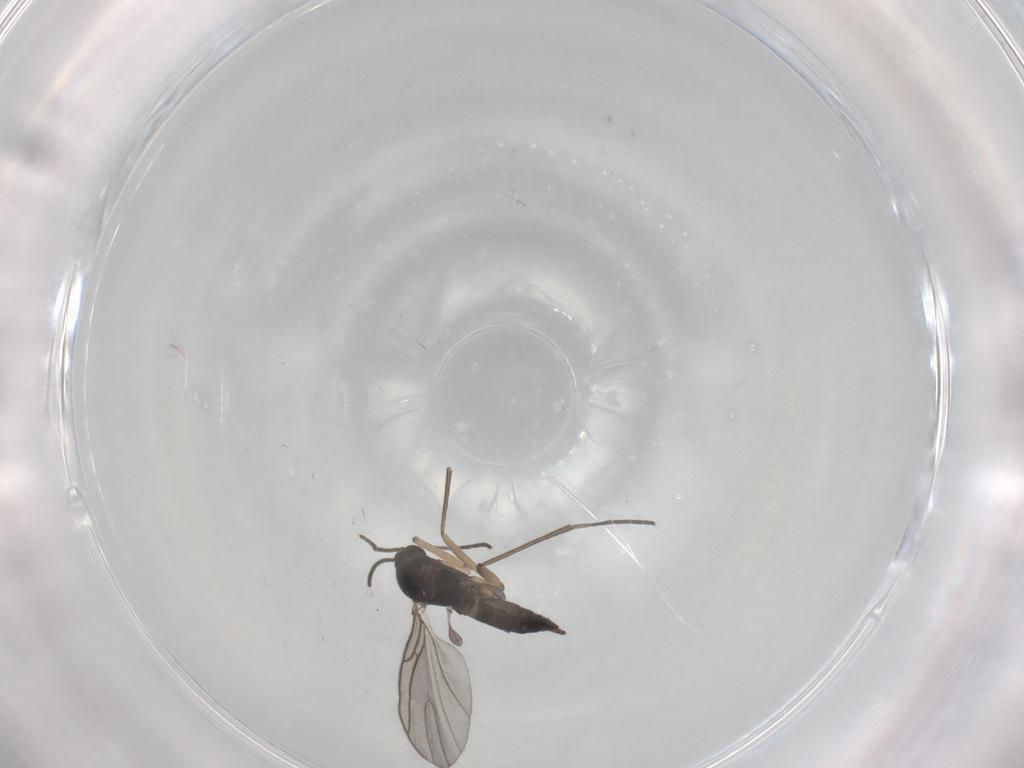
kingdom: Animalia
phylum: Arthropoda
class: Insecta
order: Diptera
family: Sciaridae
